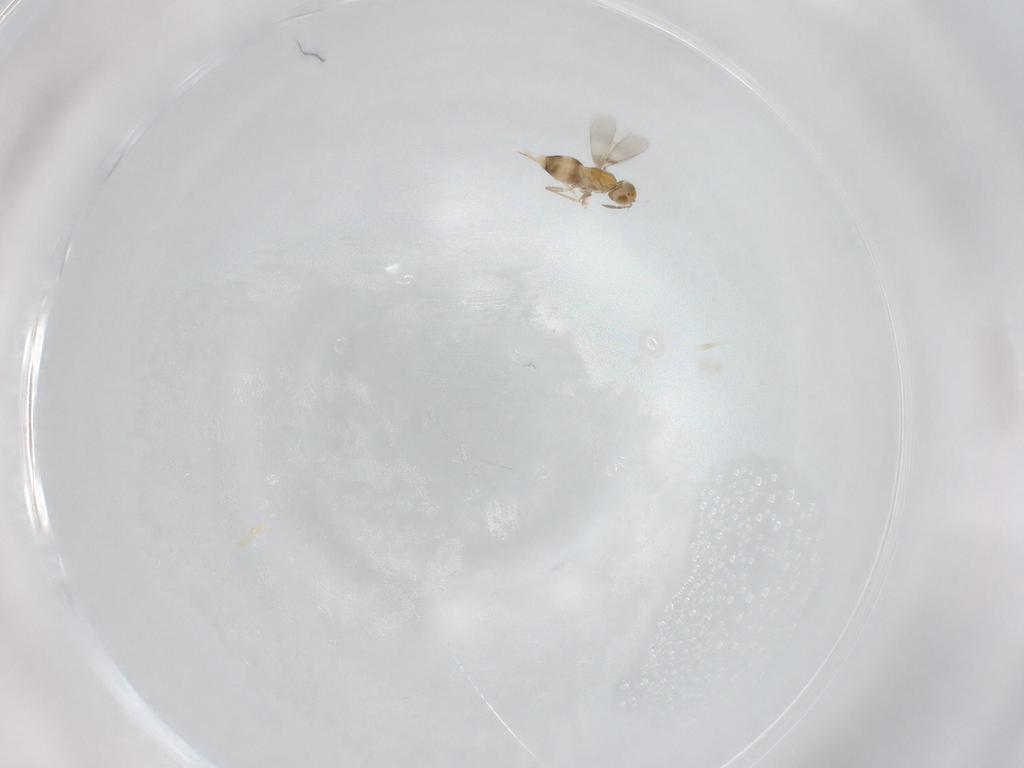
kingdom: Animalia
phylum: Arthropoda
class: Insecta
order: Hymenoptera
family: Aphelinidae
